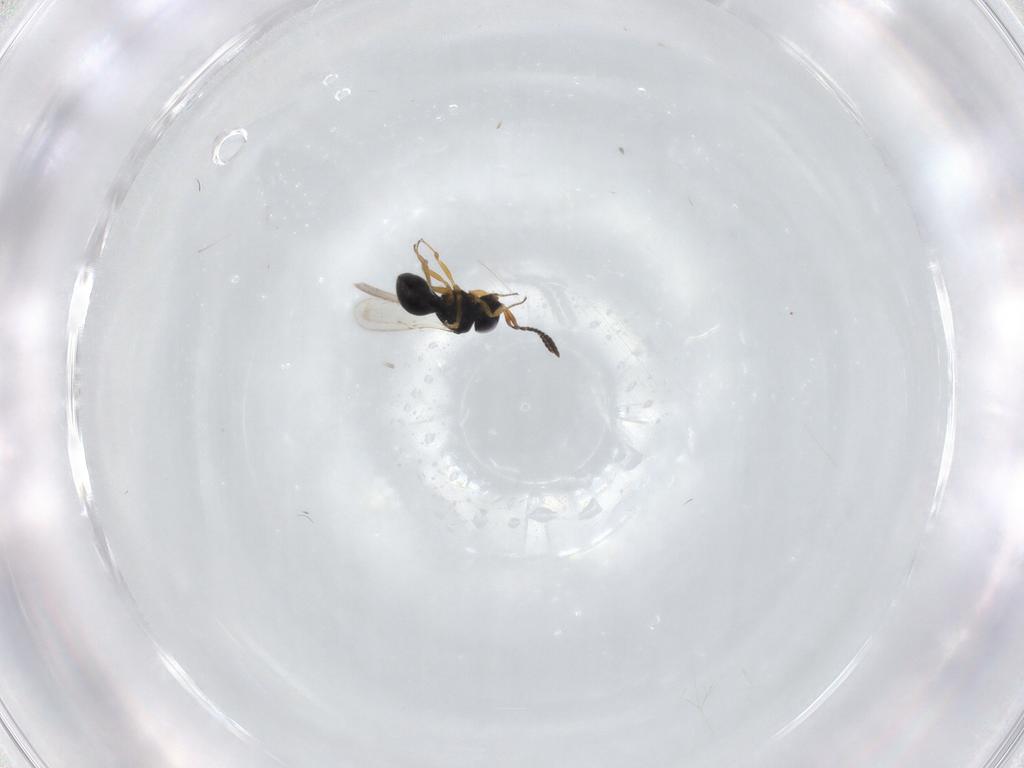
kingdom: Animalia
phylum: Arthropoda
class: Insecta
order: Hymenoptera
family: Scelionidae
